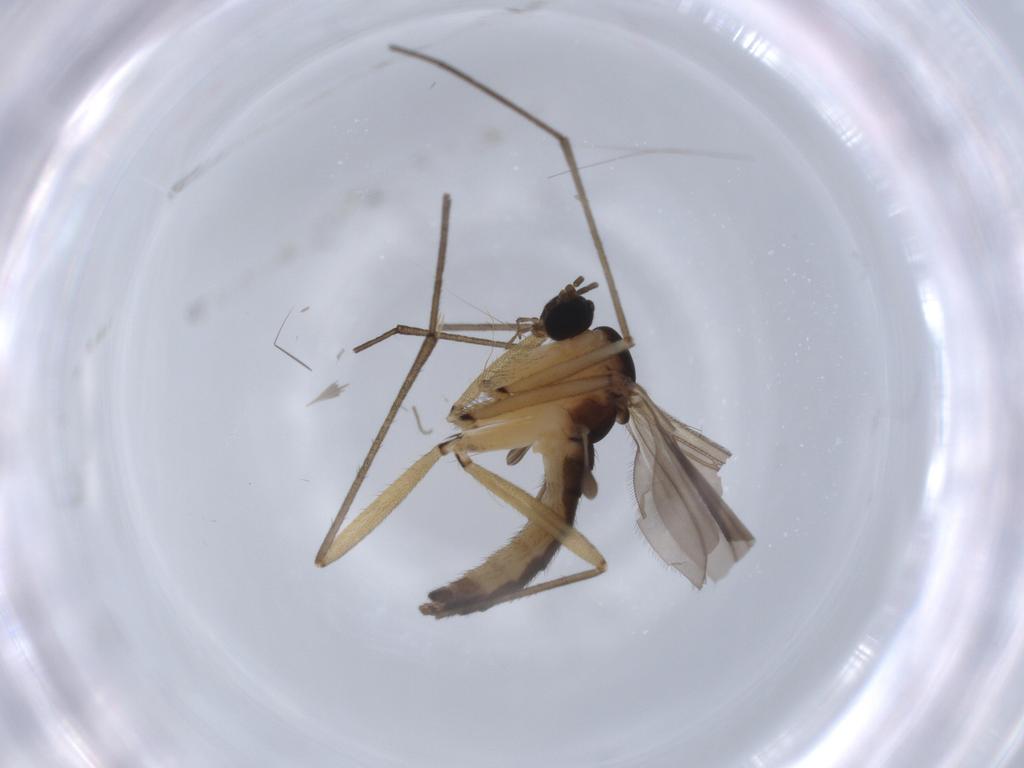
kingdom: Animalia
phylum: Arthropoda
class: Insecta
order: Diptera
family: Sciaridae
